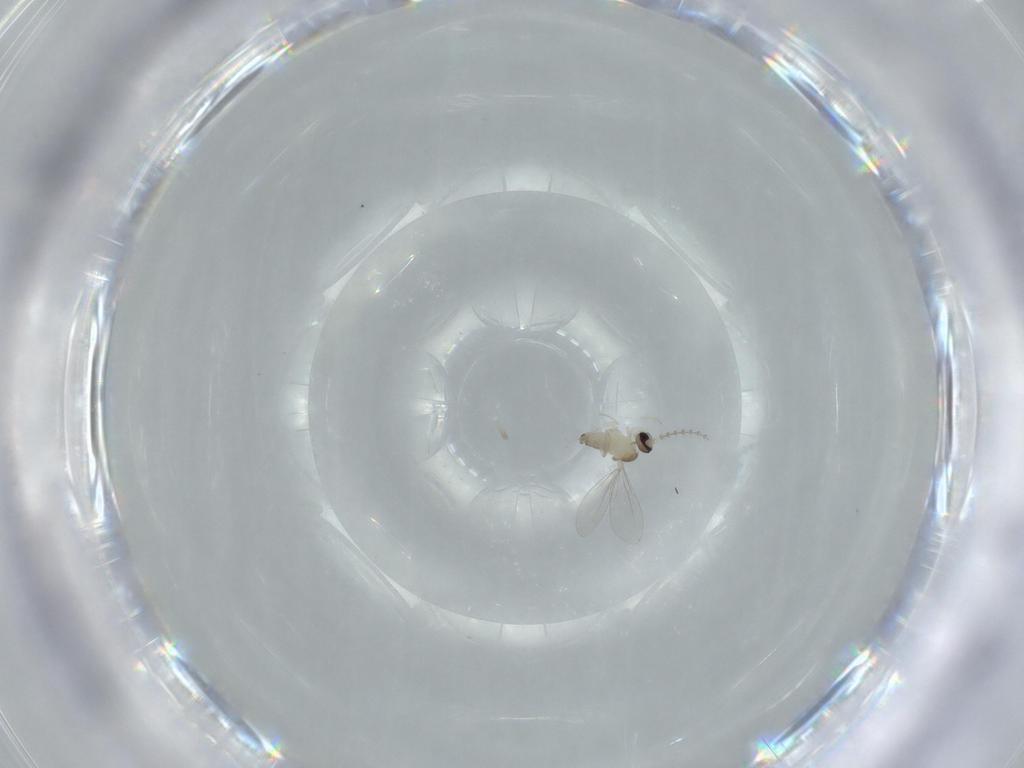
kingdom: Animalia
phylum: Arthropoda
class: Insecta
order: Diptera
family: Cecidomyiidae
